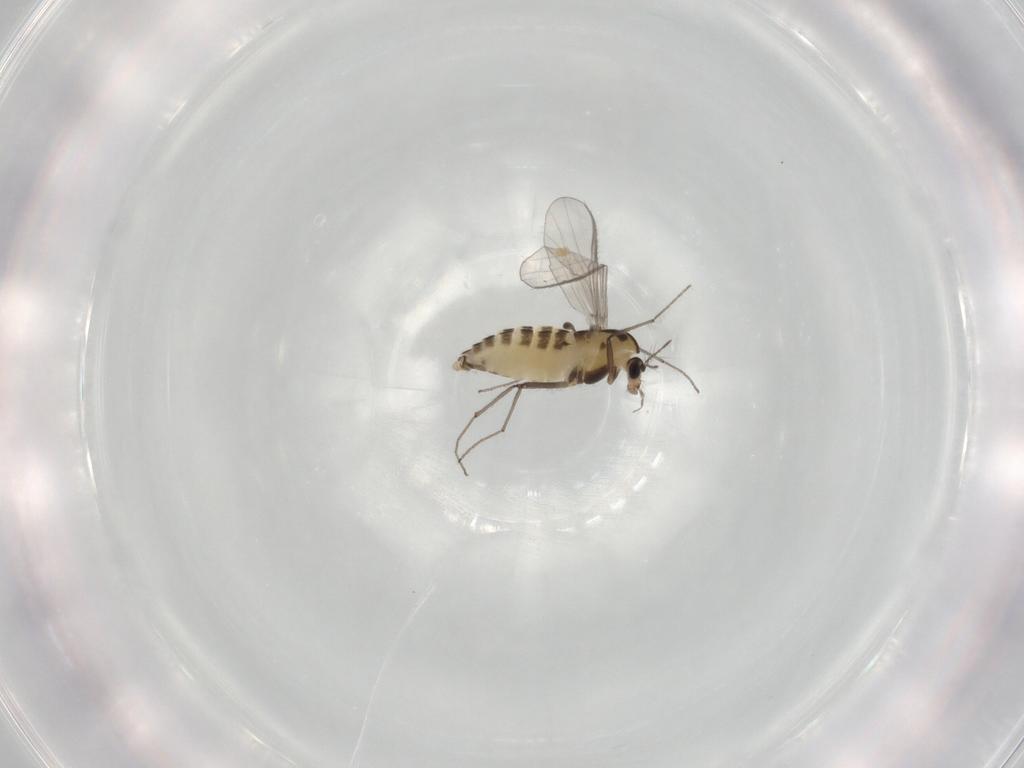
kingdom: Animalia
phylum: Arthropoda
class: Insecta
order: Diptera
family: Chironomidae
